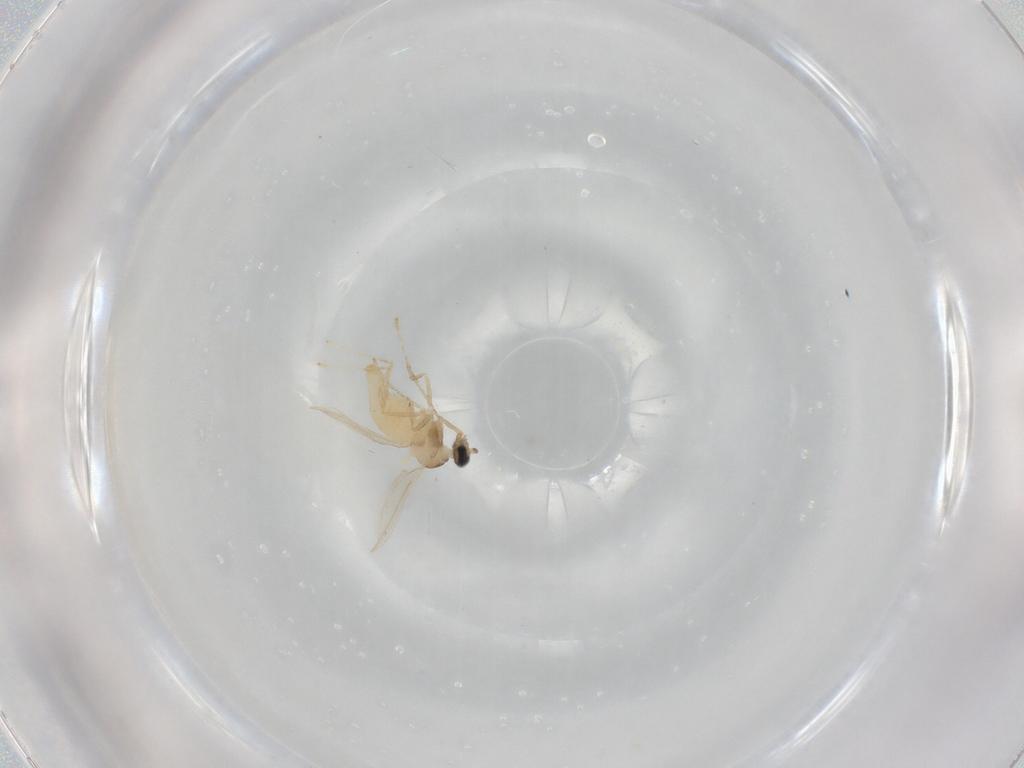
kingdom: Animalia
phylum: Arthropoda
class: Insecta
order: Diptera
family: Cecidomyiidae
